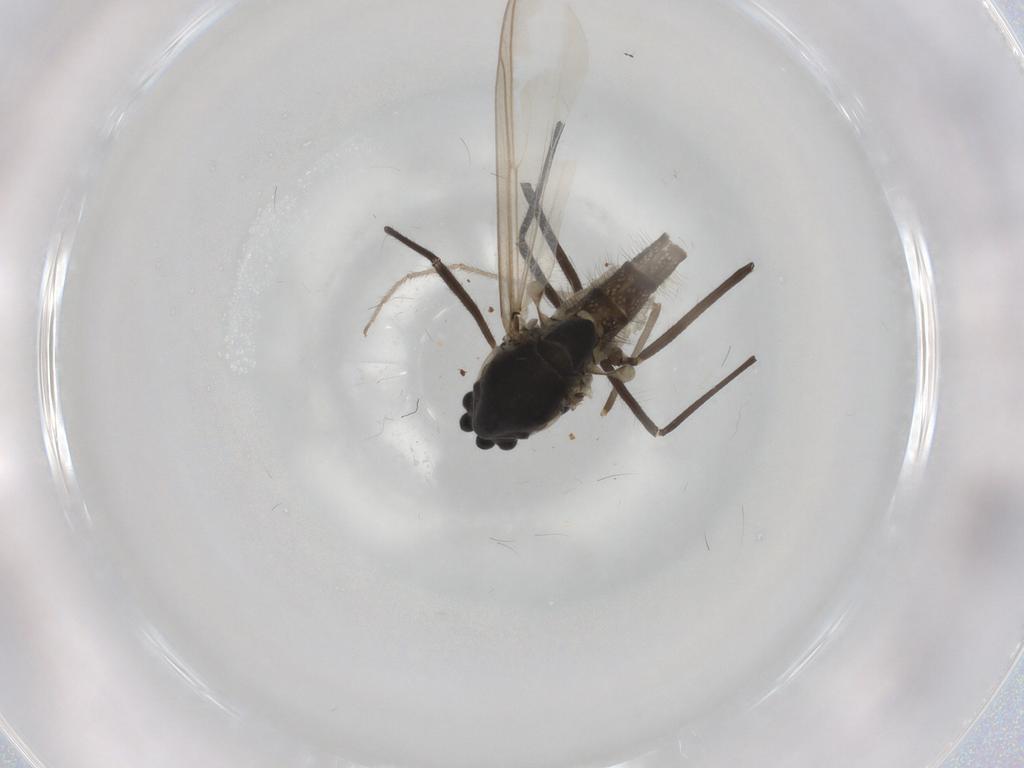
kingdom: Animalia
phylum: Arthropoda
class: Insecta
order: Diptera
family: Chironomidae
